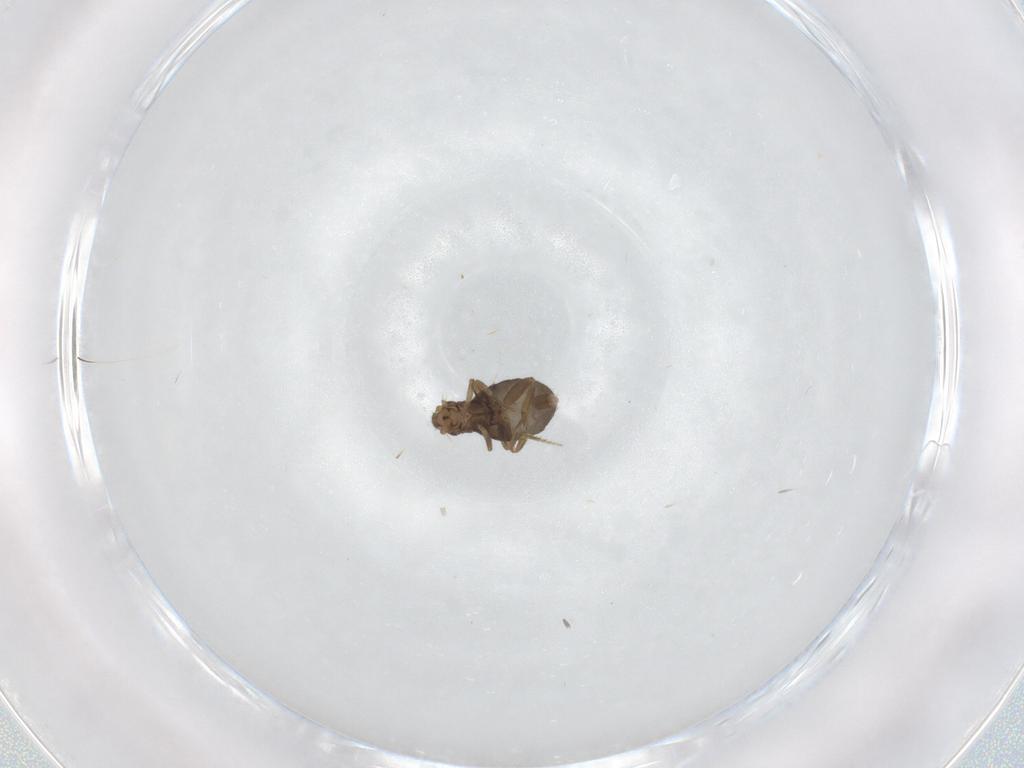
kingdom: Animalia
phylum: Arthropoda
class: Insecta
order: Diptera
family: Phoridae
